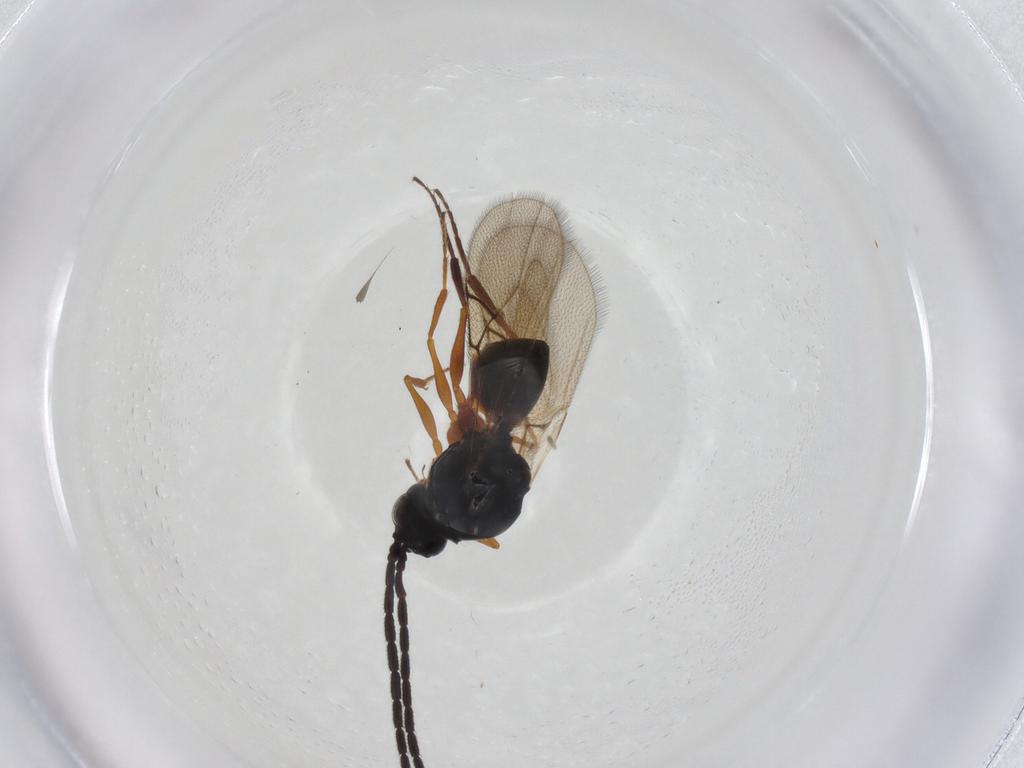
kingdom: Animalia
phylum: Arthropoda
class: Insecta
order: Hymenoptera
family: Figitidae
